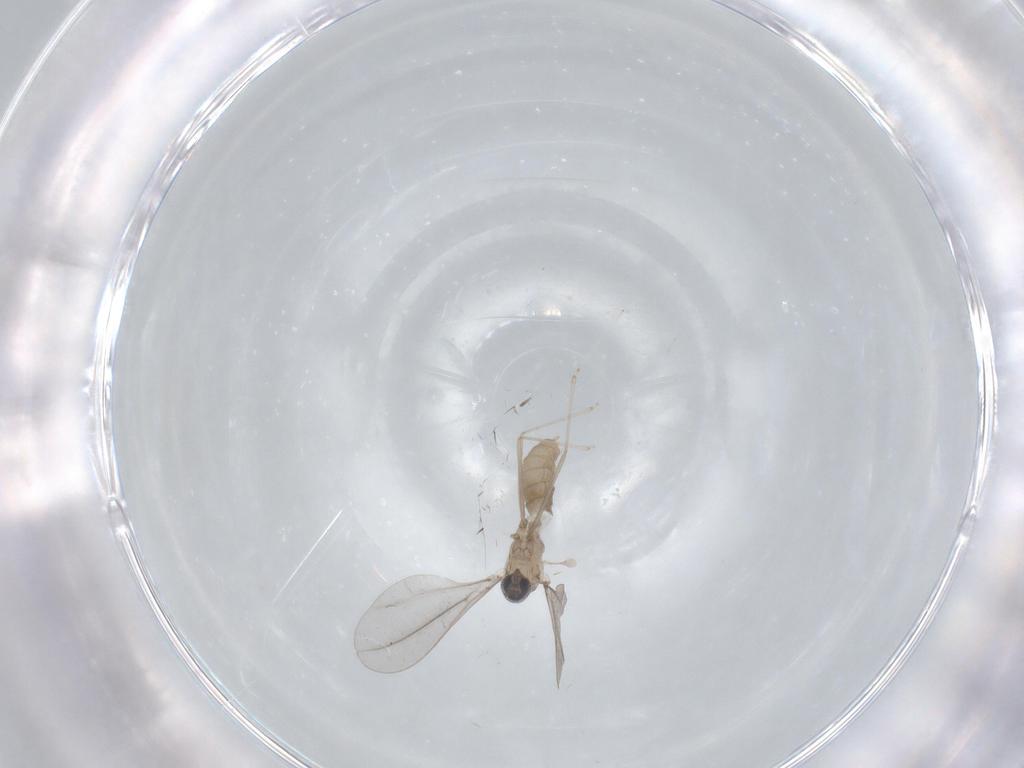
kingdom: Animalia
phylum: Arthropoda
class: Insecta
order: Diptera
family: Cecidomyiidae
